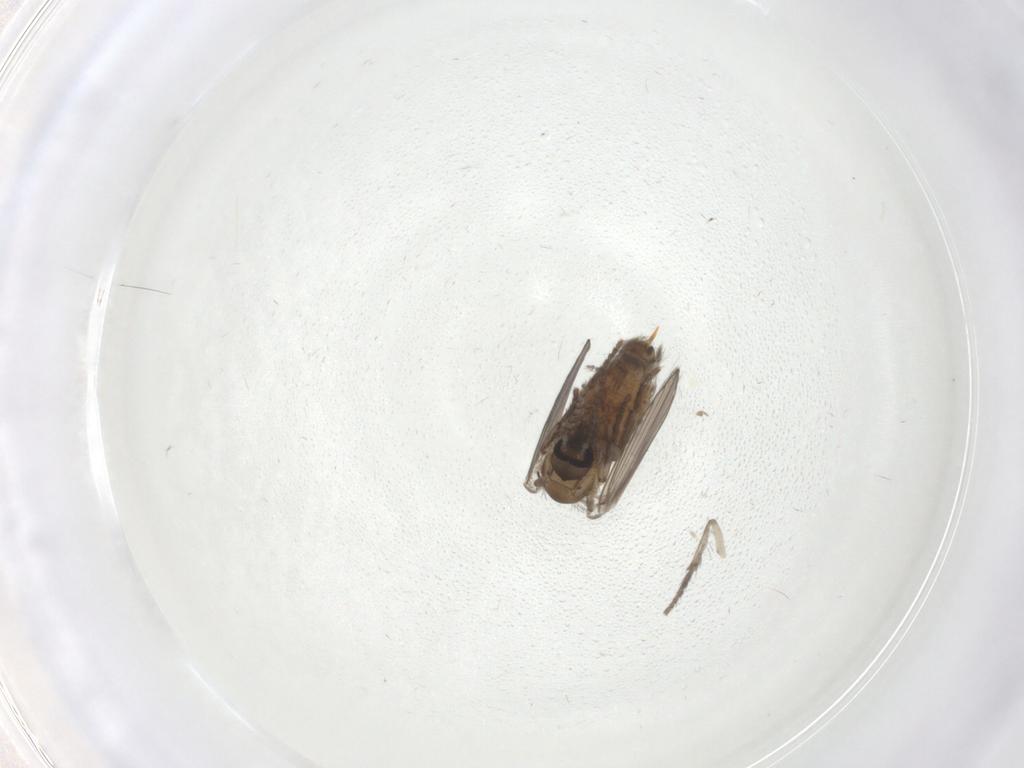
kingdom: Animalia
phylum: Arthropoda
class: Insecta
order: Diptera
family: Psychodidae
